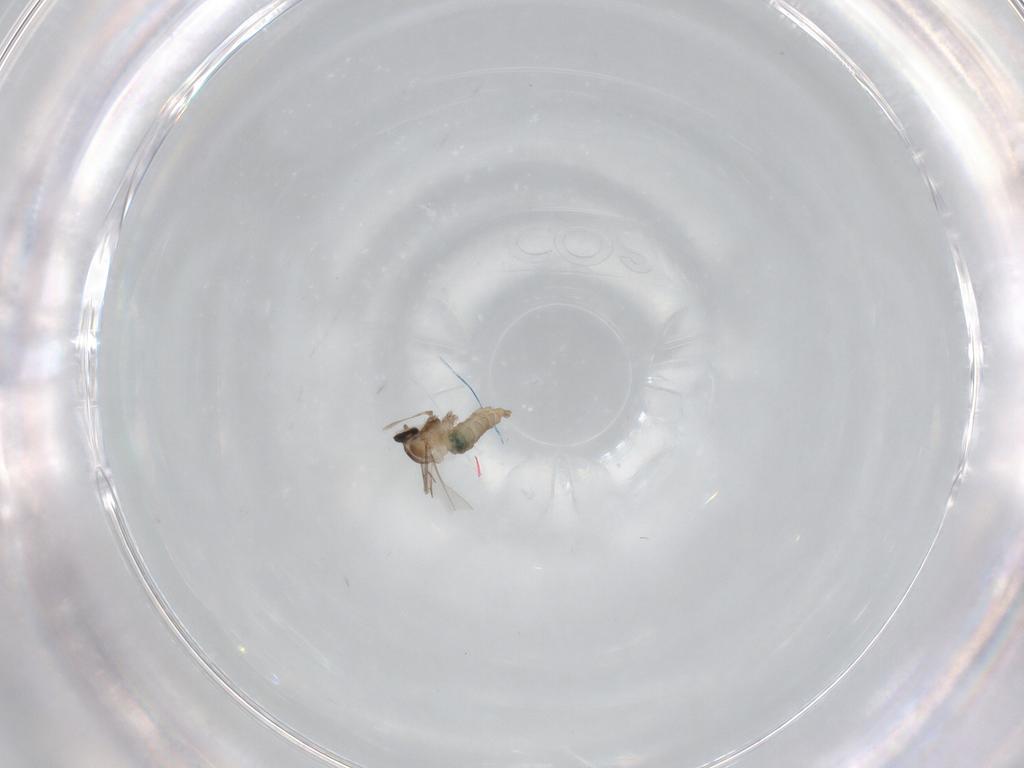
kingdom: Animalia
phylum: Arthropoda
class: Insecta
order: Diptera
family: Cecidomyiidae
